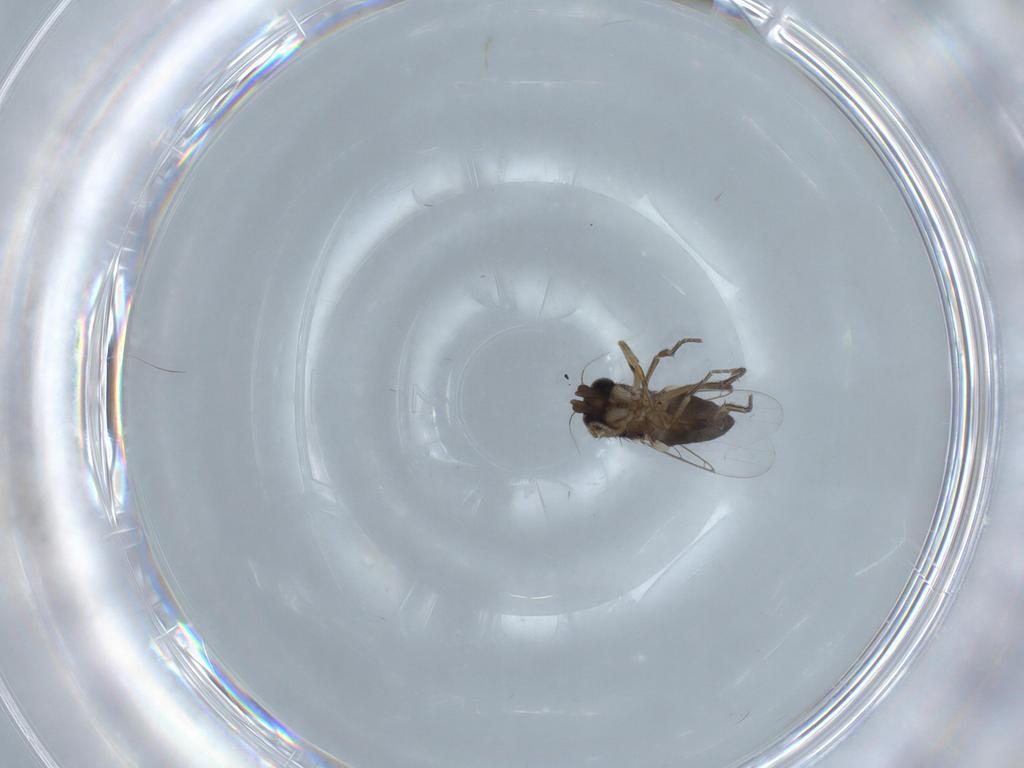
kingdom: Animalia
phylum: Arthropoda
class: Insecta
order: Diptera
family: Phoridae
